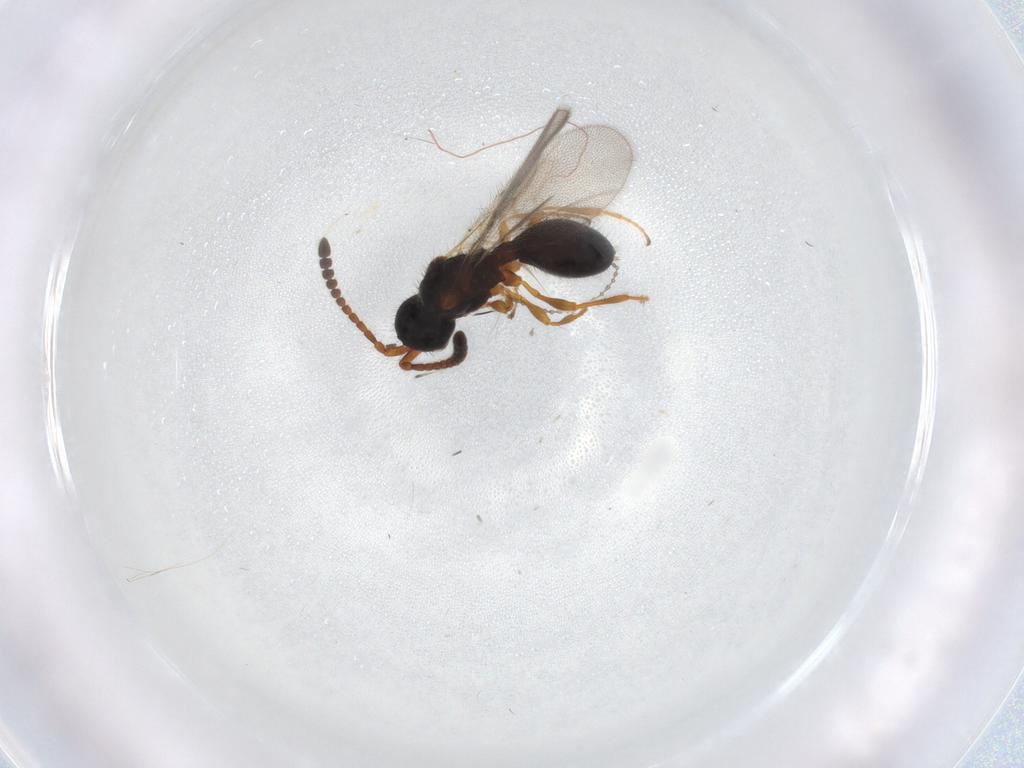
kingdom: Animalia
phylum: Arthropoda
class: Insecta
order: Hymenoptera
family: Diapriidae
